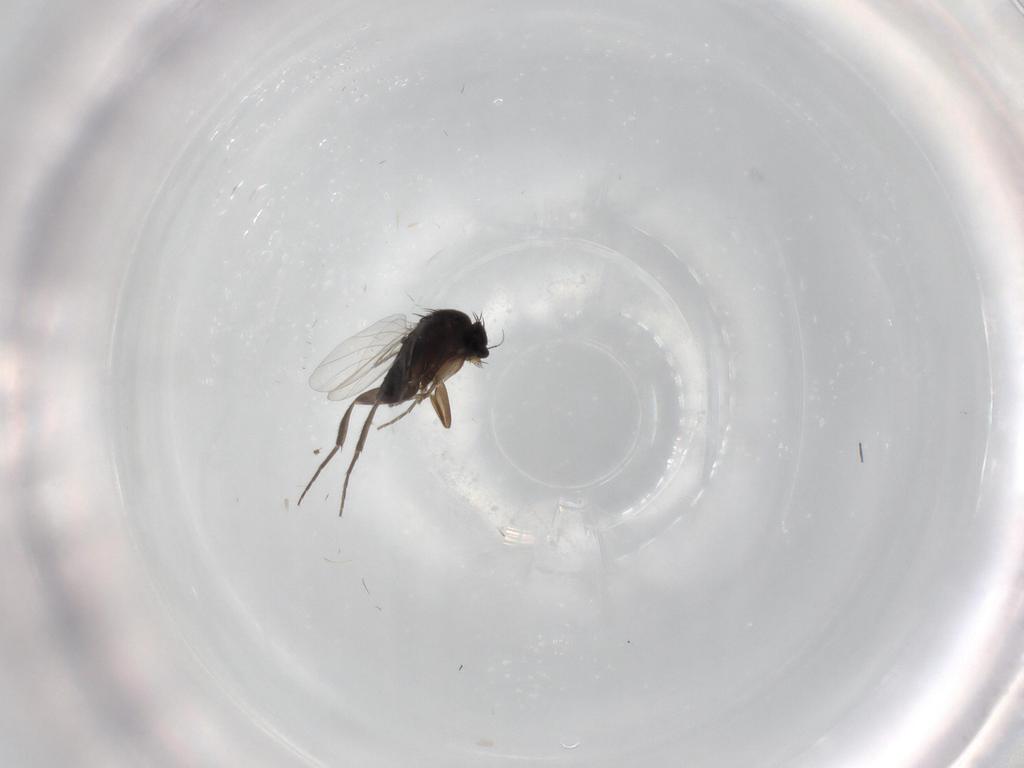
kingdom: Animalia
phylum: Arthropoda
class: Insecta
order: Diptera
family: Phoridae
